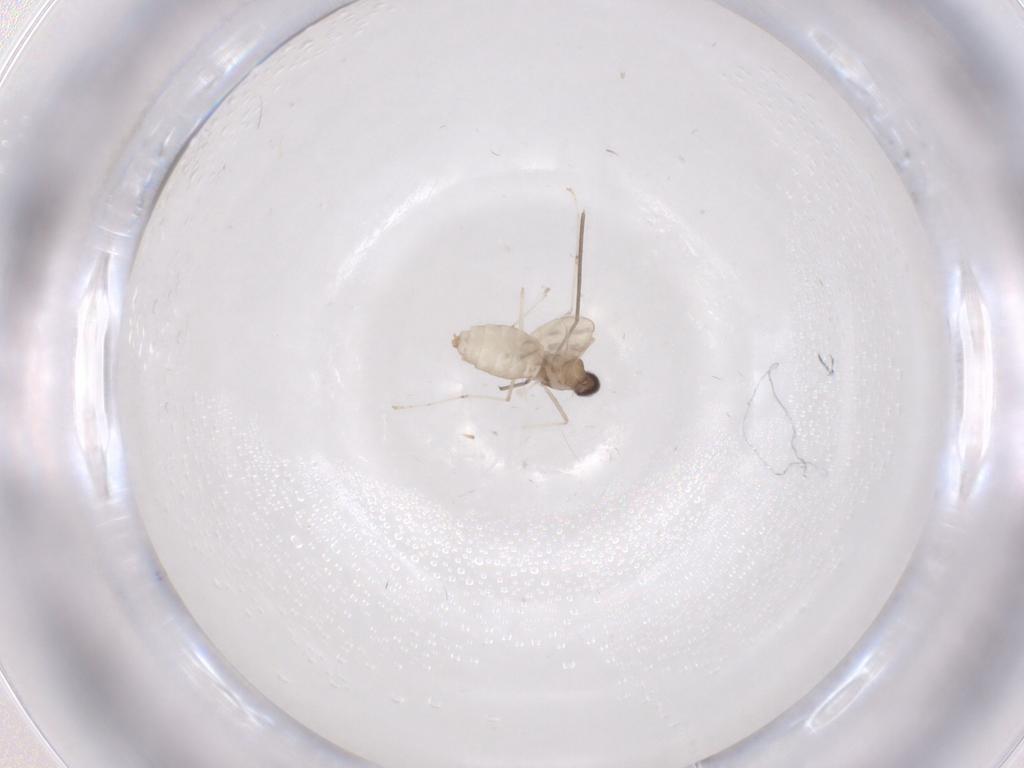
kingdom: Animalia
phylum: Arthropoda
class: Insecta
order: Diptera
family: Cecidomyiidae
